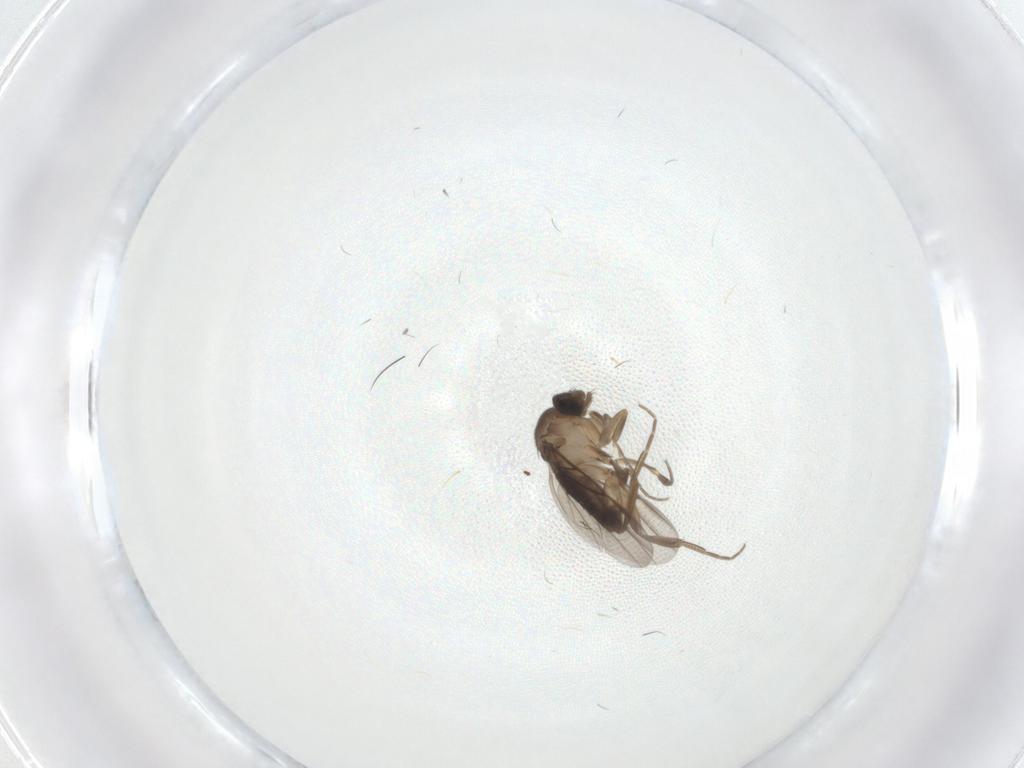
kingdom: Animalia
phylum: Arthropoda
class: Insecta
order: Diptera
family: Phoridae
